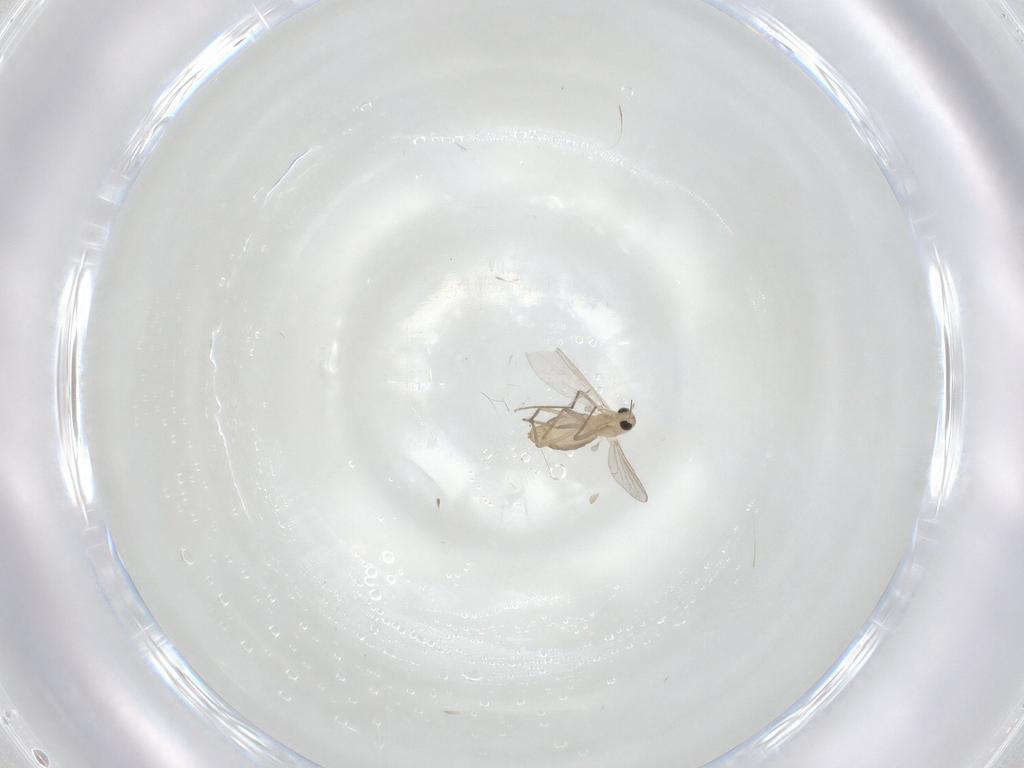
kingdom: Animalia
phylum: Arthropoda
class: Insecta
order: Diptera
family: Chironomidae
